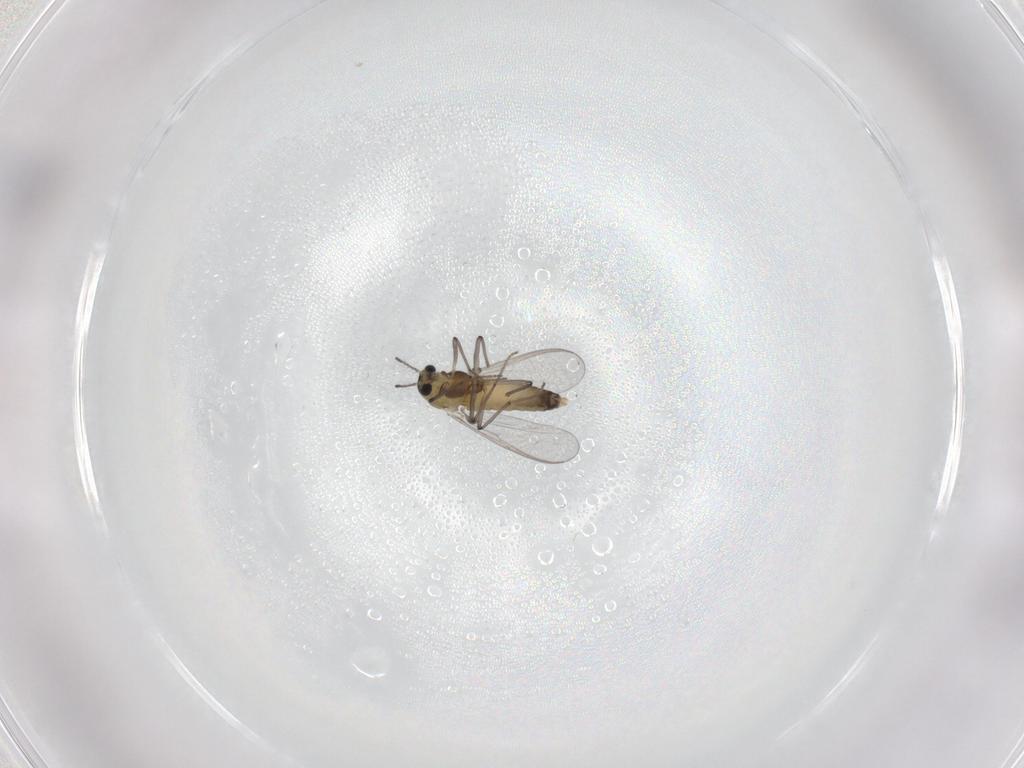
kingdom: Animalia
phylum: Arthropoda
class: Insecta
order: Diptera
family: Chironomidae
